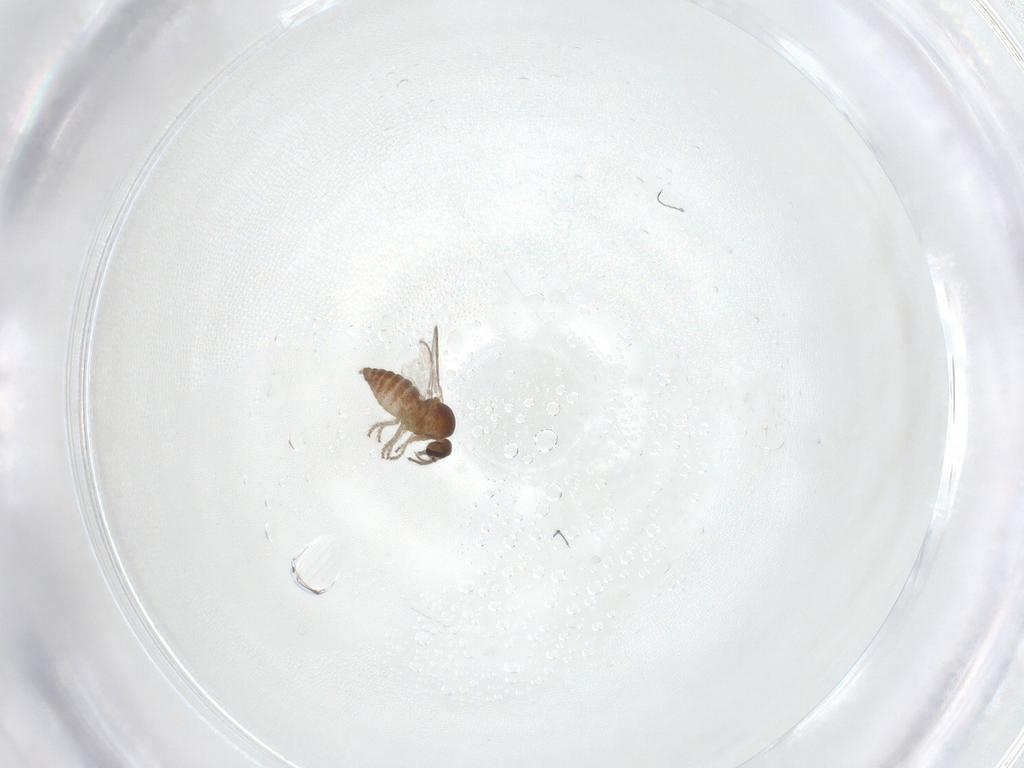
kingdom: Animalia
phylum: Arthropoda
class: Insecta
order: Diptera
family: Ceratopogonidae
